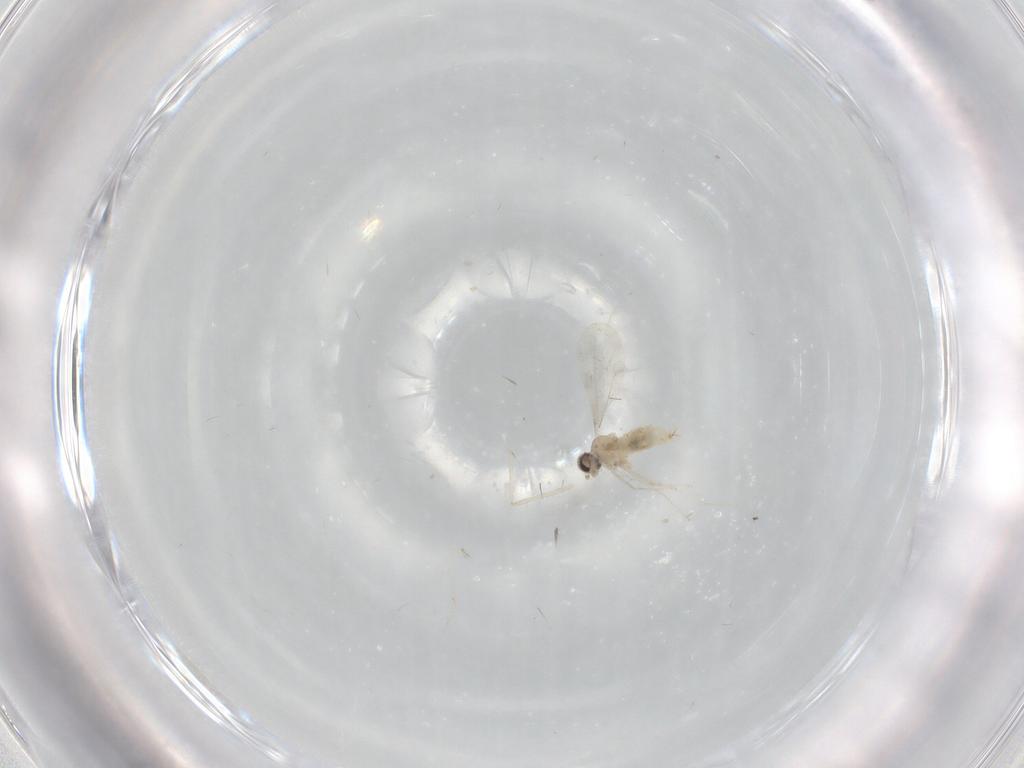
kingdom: Animalia
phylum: Arthropoda
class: Insecta
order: Diptera
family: Cecidomyiidae
